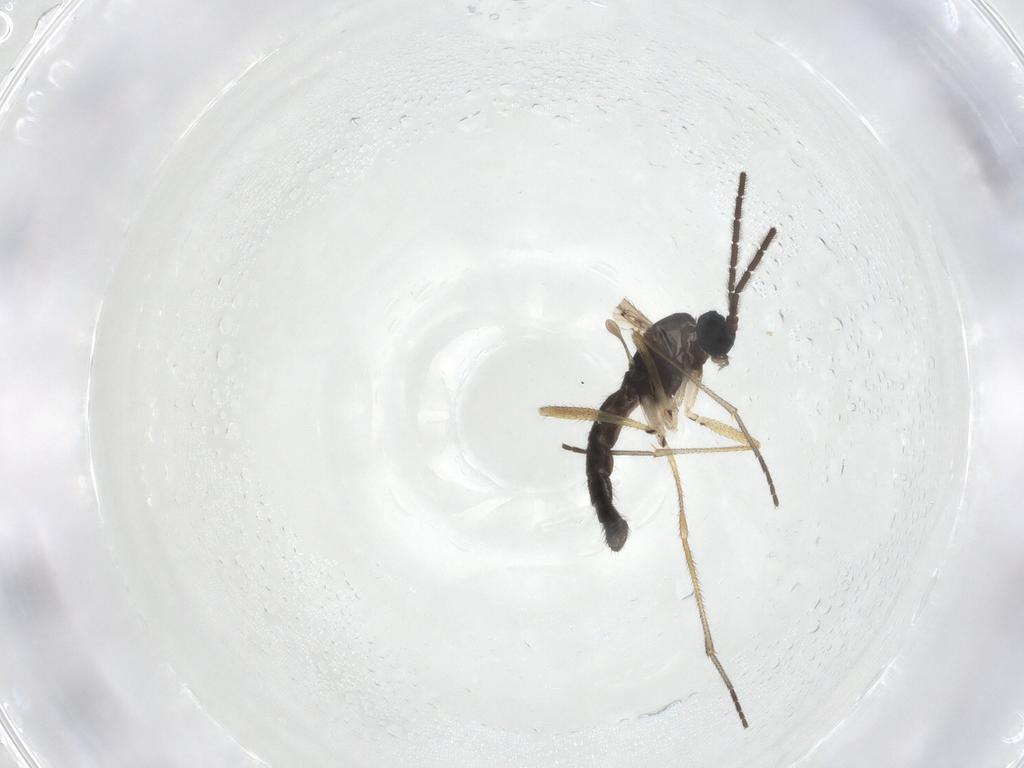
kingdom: Animalia
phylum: Arthropoda
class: Insecta
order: Diptera
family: Sciaridae
